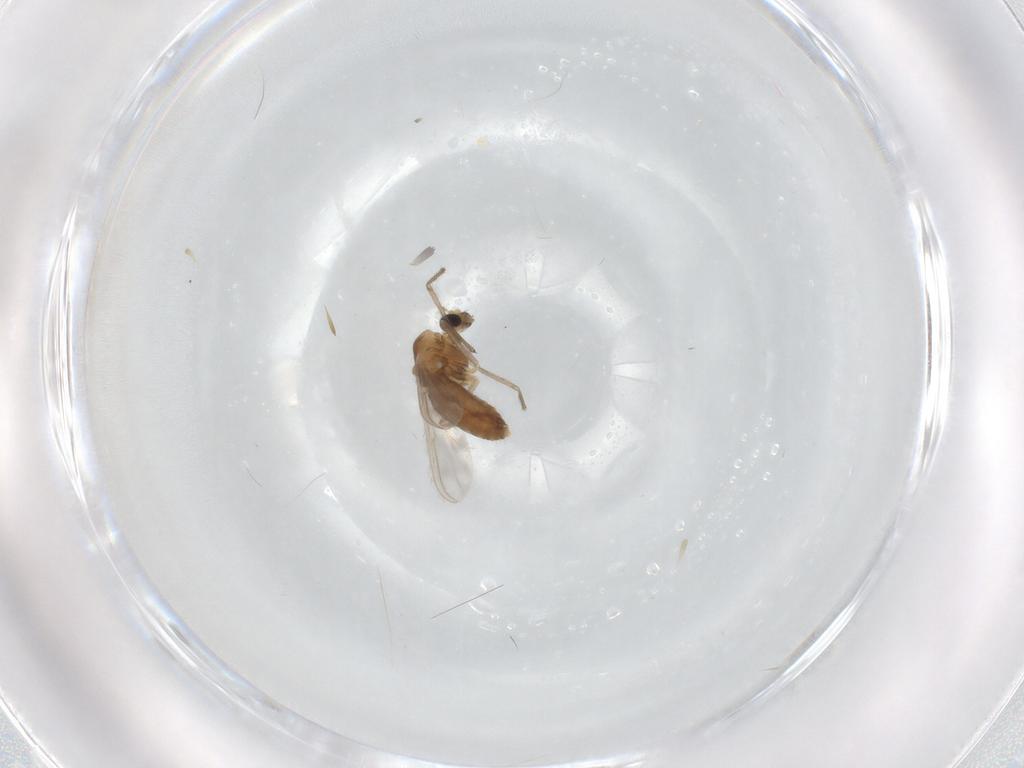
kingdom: Animalia
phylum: Arthropoda
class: Insecta
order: Diptera
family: Chironomidae
